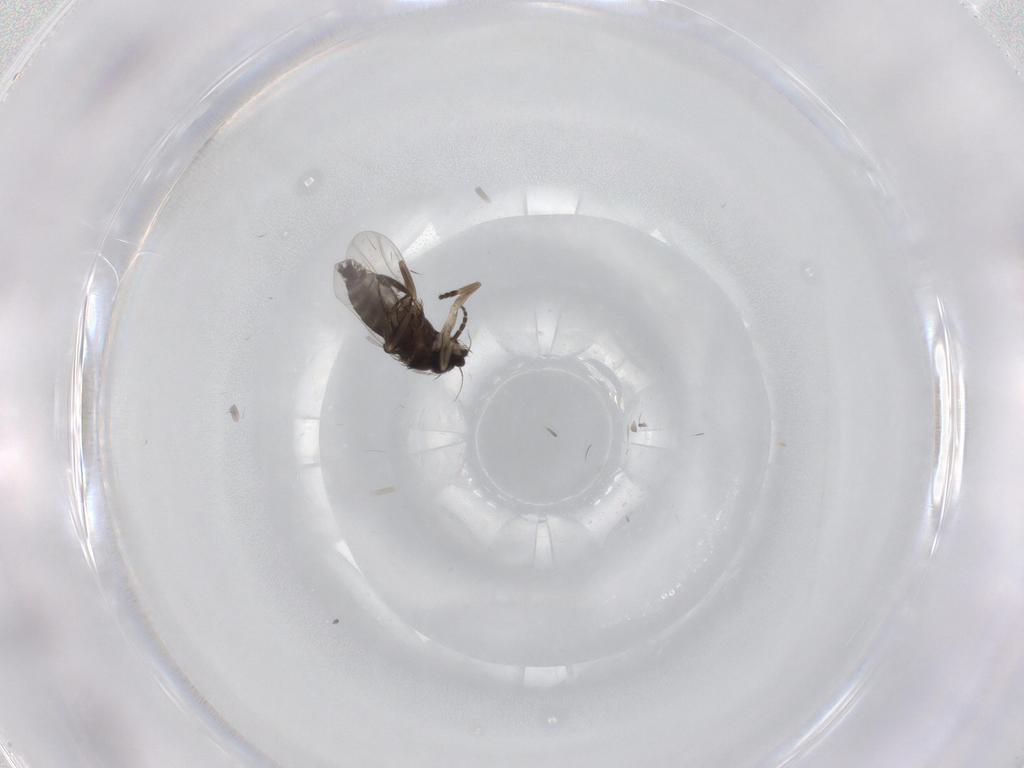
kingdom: Animalia
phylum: Arthropoda
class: Insecta
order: Diptera
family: Phoridae
